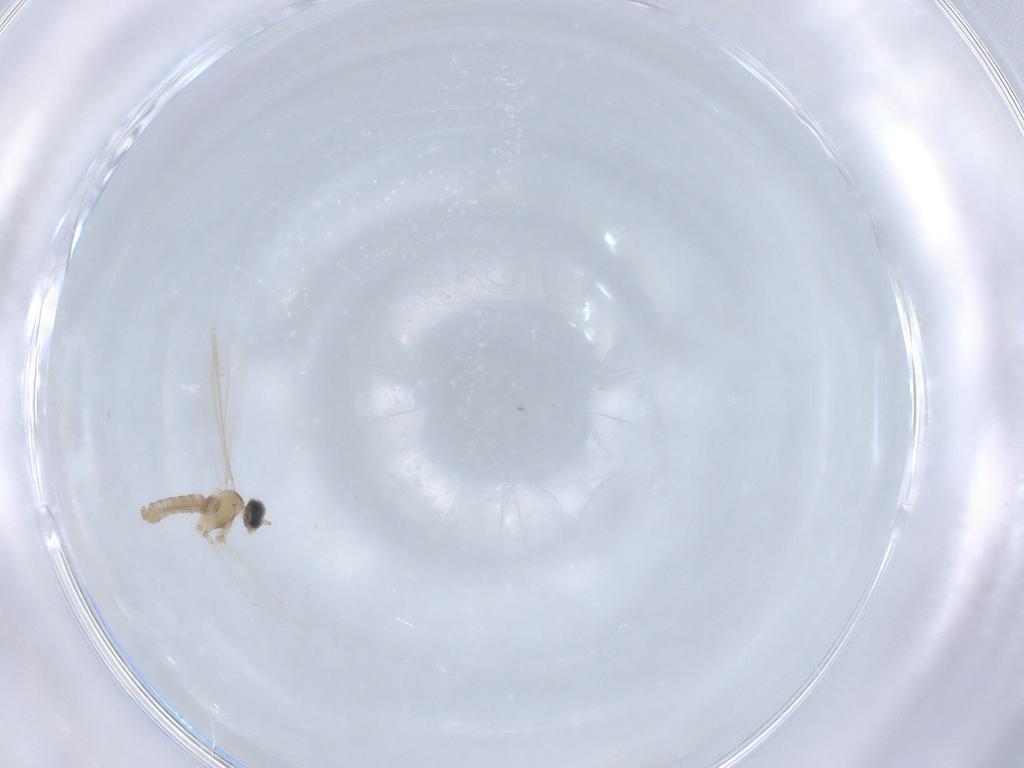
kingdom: Animalia
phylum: Arthropoda
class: Insecta
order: Diptera
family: Cecidomyiidae
